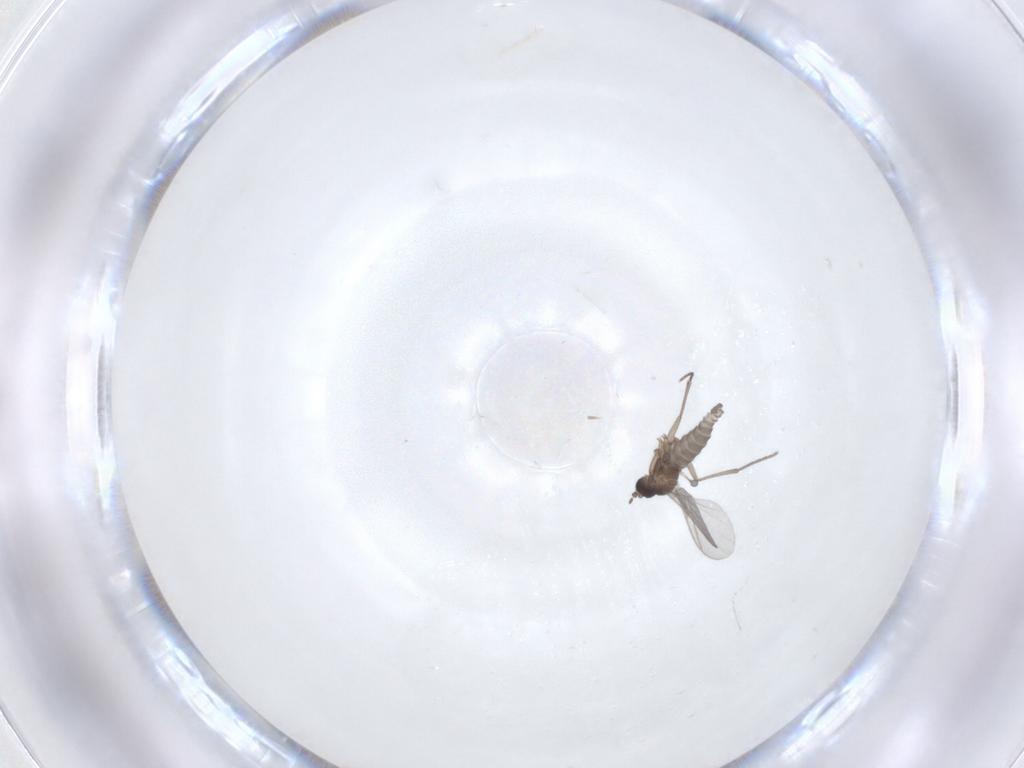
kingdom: Animalia
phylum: Arthropoda
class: Insecta
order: Diptera
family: Sciaridae
